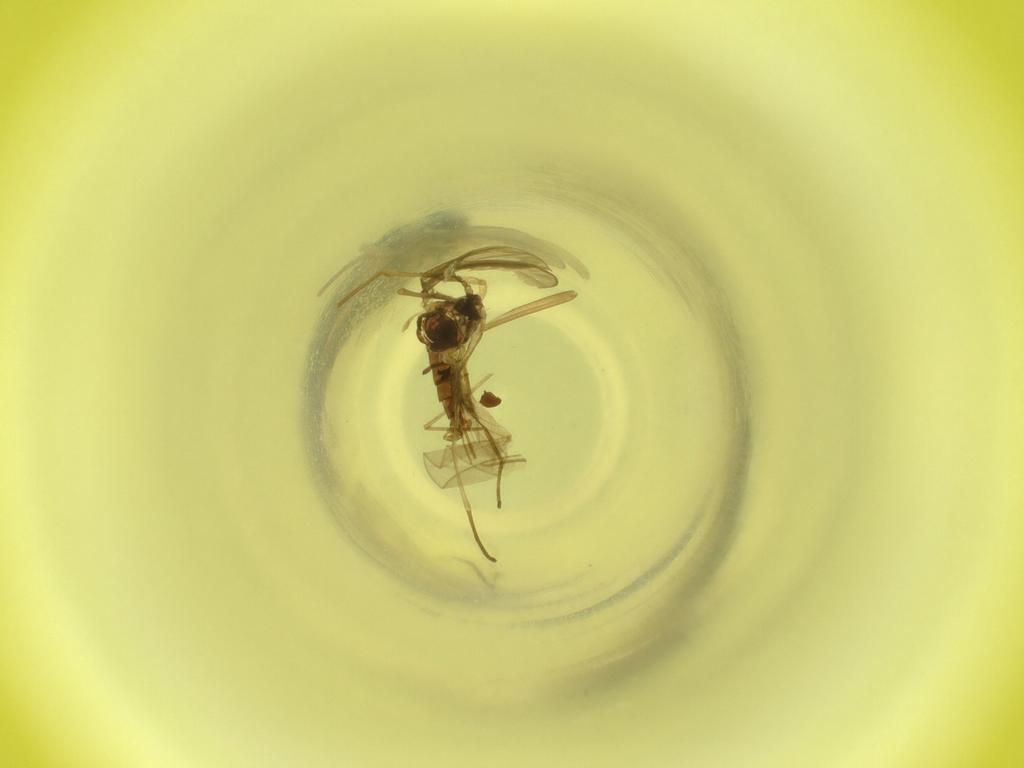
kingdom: Animalia
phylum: Arthropoda
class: Insecta
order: Diptera
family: Cecidomyiidae
